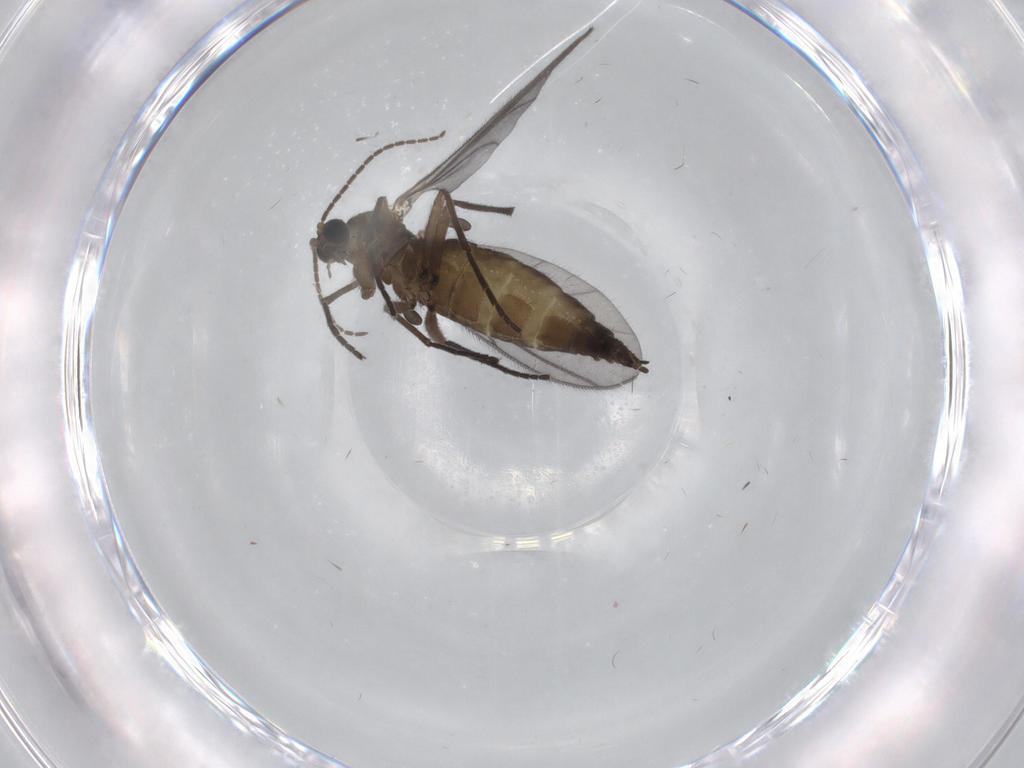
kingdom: Animalia
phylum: Arthropoda
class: Insecta
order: Diptera
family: Sciaridae
